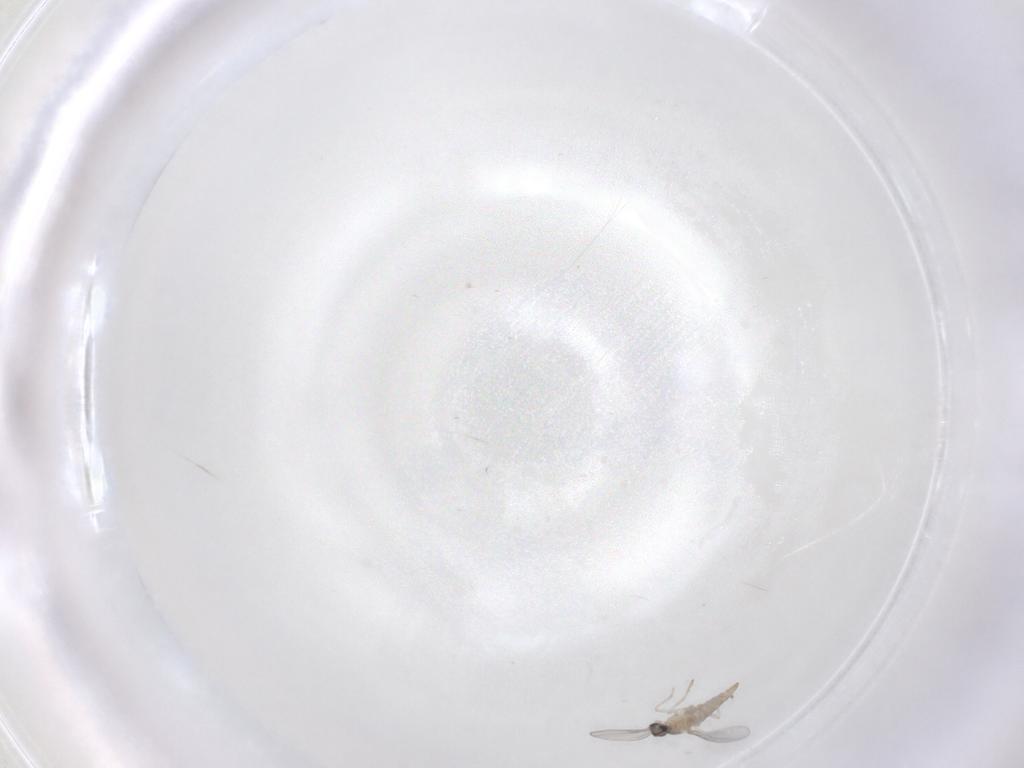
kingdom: Animalia
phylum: Arthropoda
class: Insecta
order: Diptera
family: Cecidomyiidae
